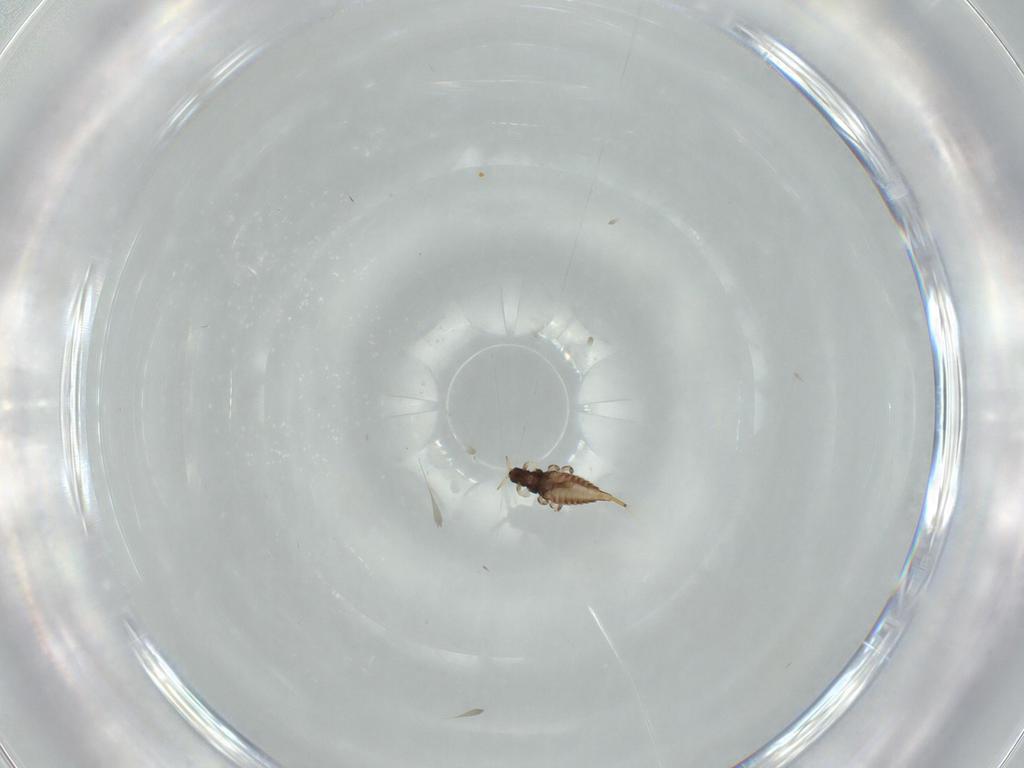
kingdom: Animalia
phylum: Arthropoda
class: Insecta
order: Thysanoptera
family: Phlaeothripidae
